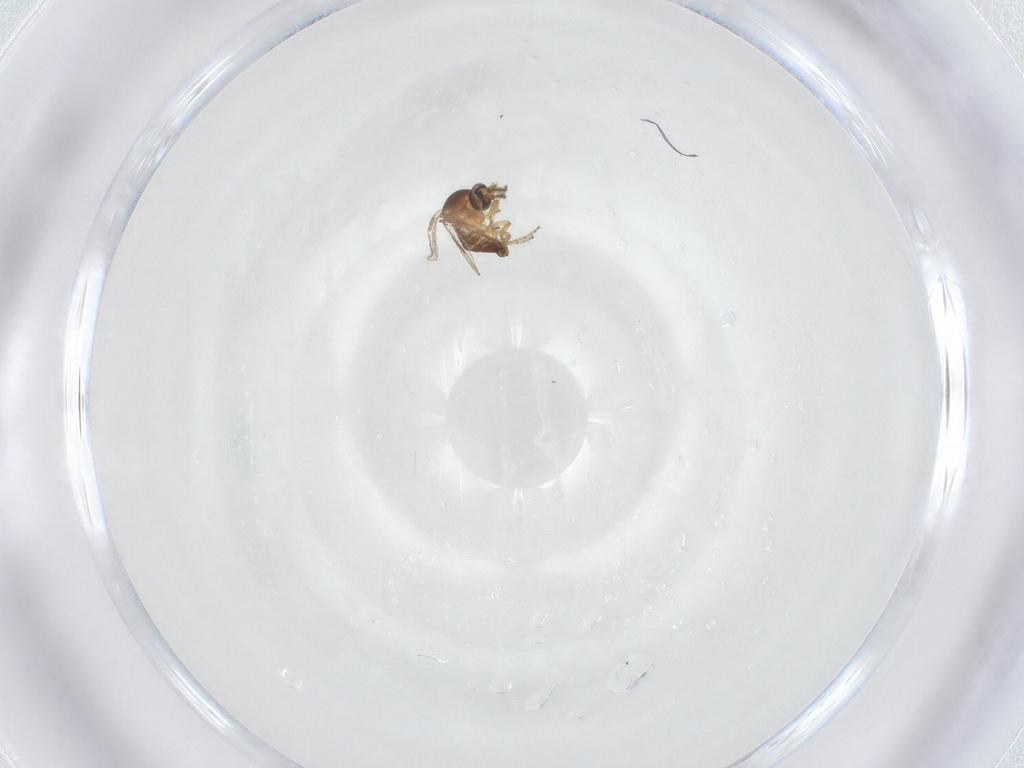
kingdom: Animalia
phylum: Arthropoda
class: Insecta
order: Diptera
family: Ceratopogonidae
